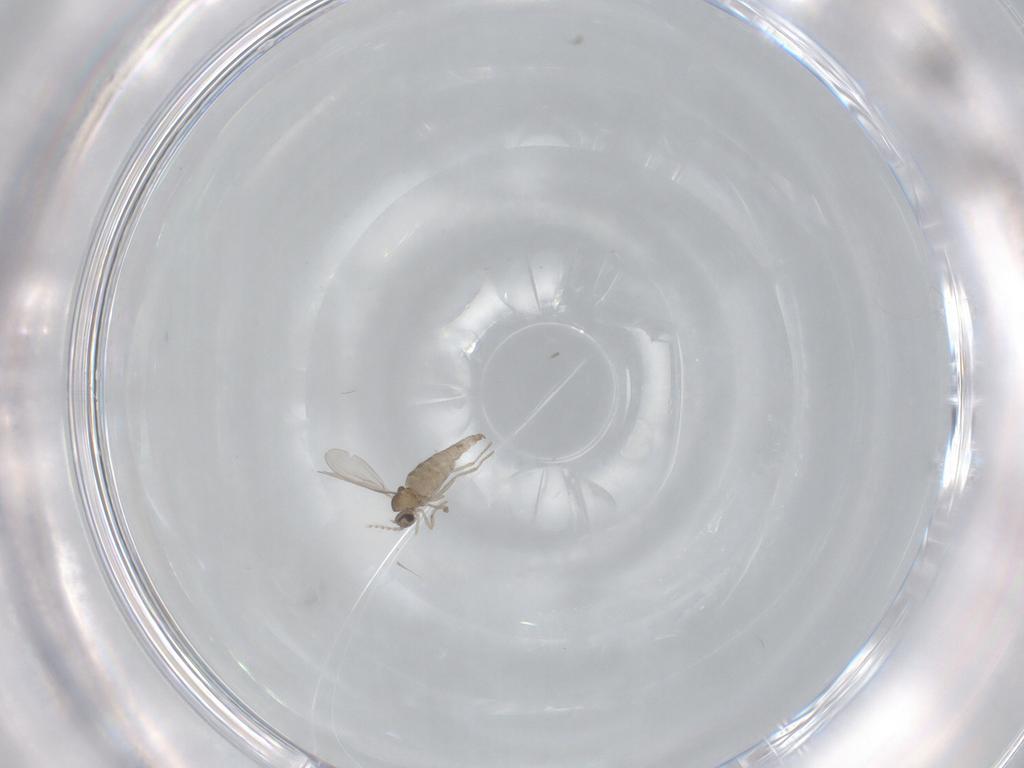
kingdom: Animalia
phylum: Arthropoda
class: Insecta
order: Diptera
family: Cecidomyiidae
